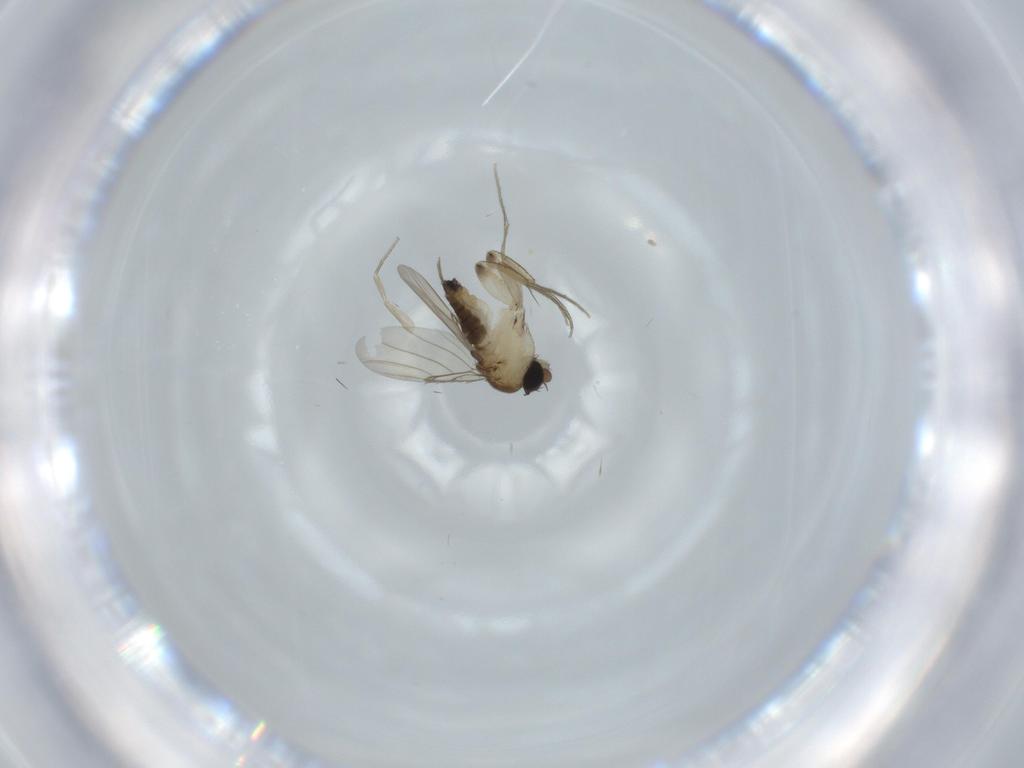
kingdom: Animalia
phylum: Arthropoda
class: Insecta
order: Diptera
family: Phoridae
